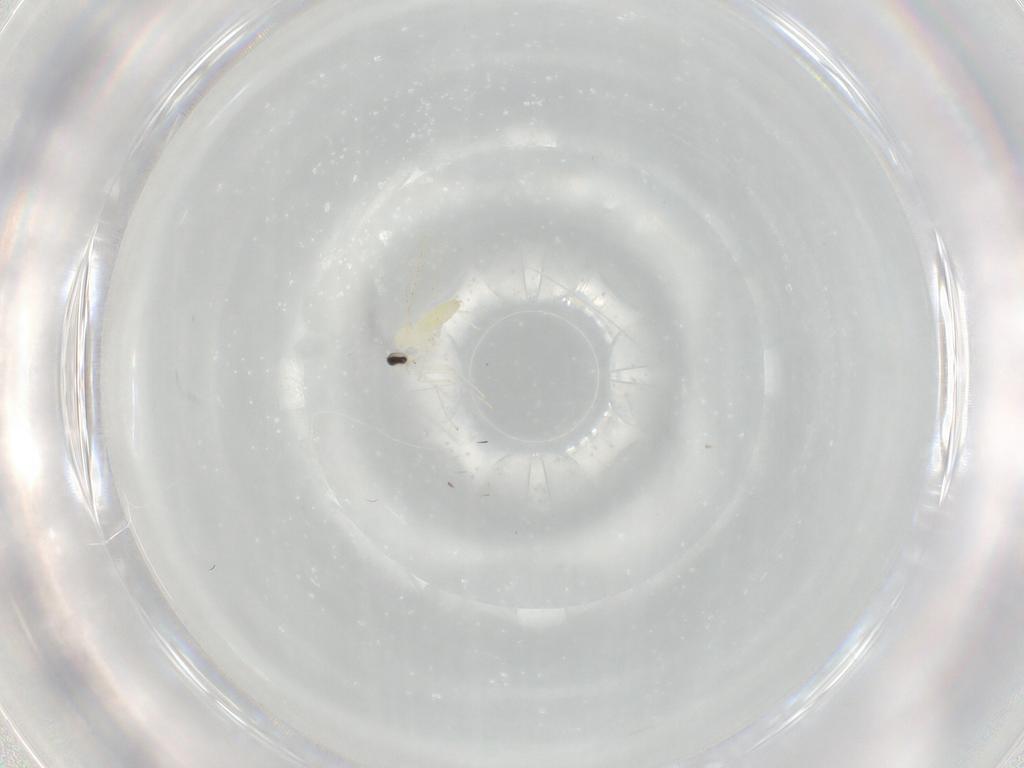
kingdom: Animalia
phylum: Arthropoda
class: Insecta
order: Diptera
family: Cecidomyiidae
